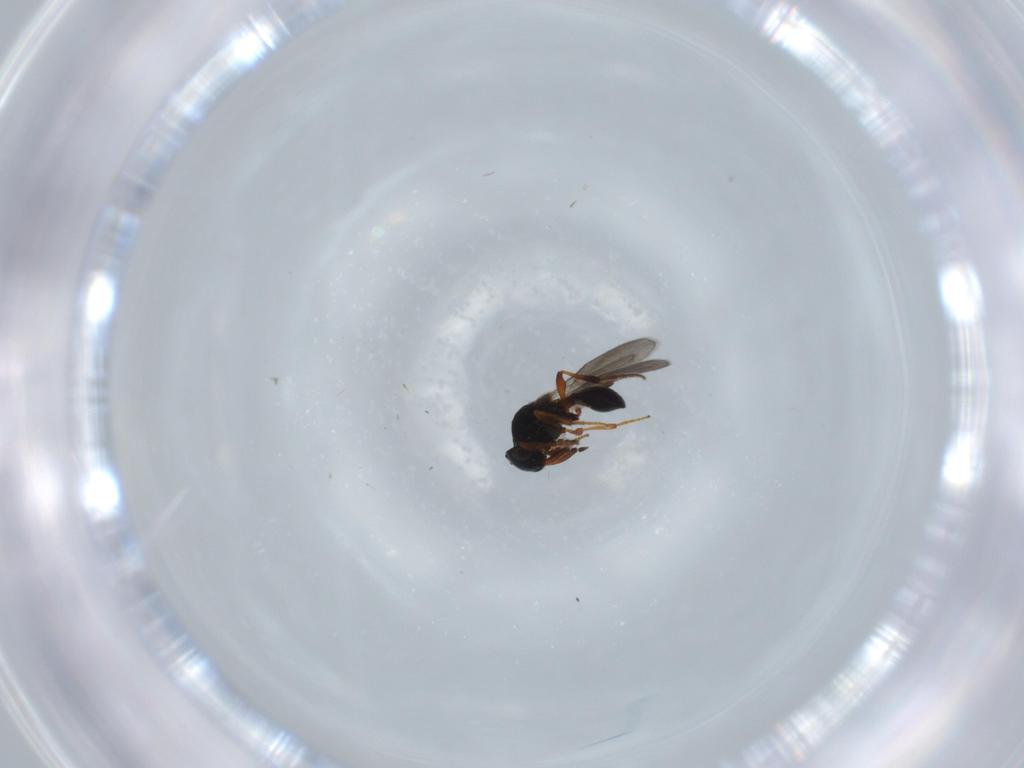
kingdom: Animalia
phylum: Arthropoda
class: Insecta
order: Hymenoptera
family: Platygastridae
